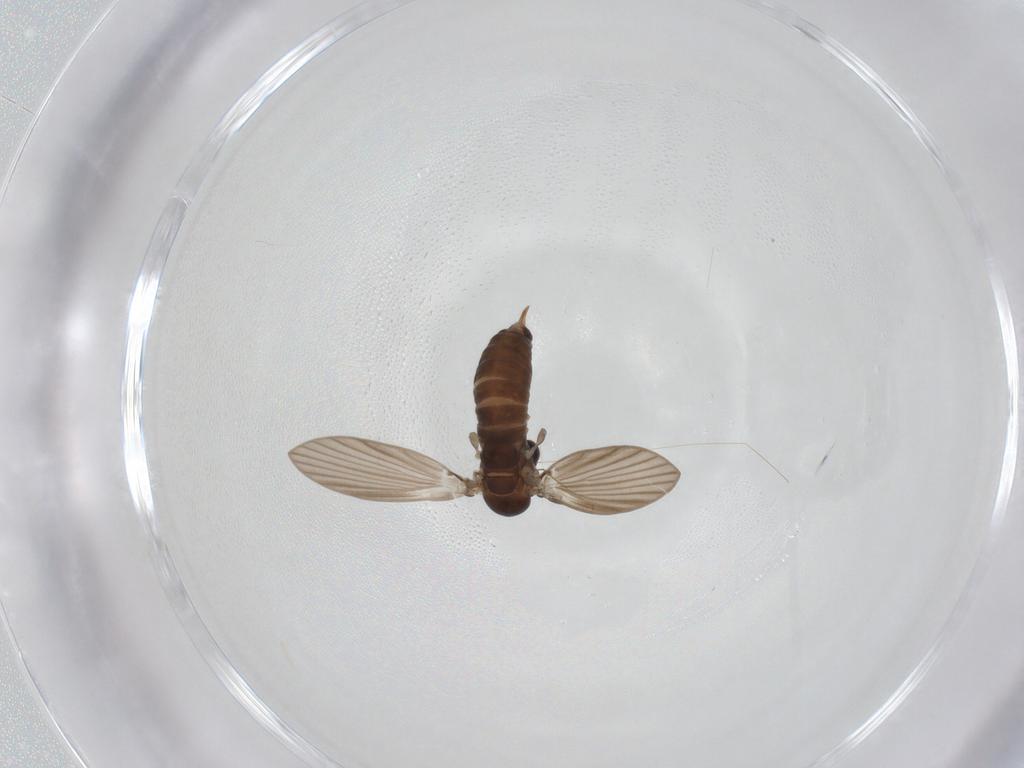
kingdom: Animalia
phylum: Arthropoda
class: Insecta
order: Diptera
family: Psychodidae
